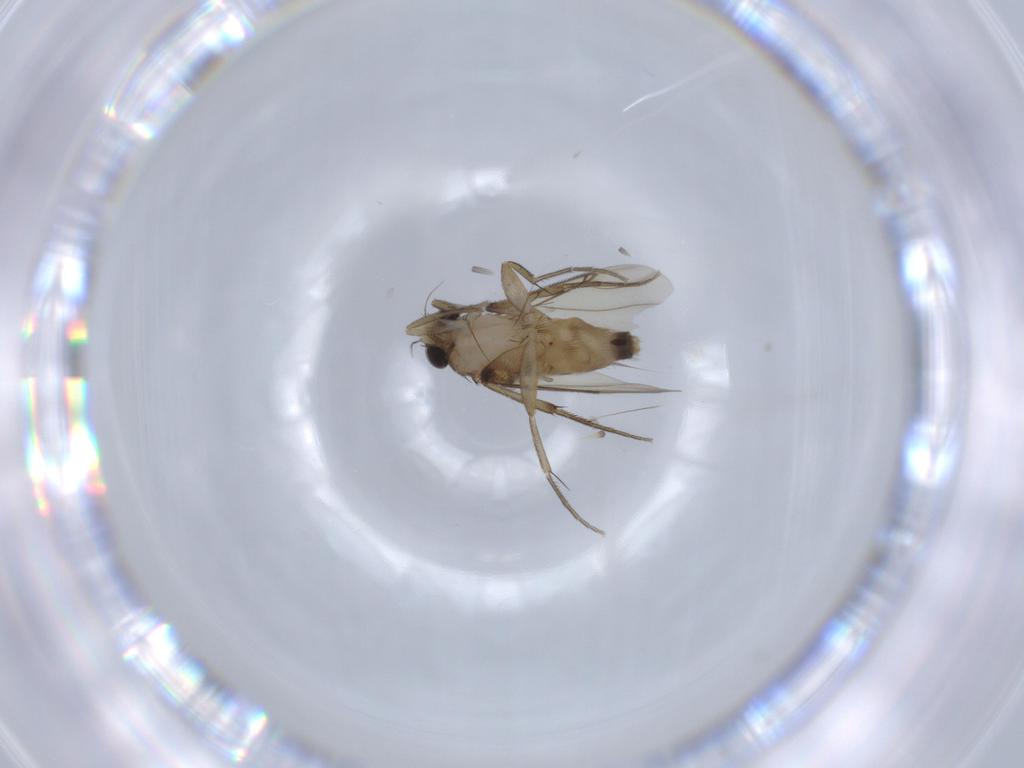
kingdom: Animalia
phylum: Arthropoda
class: Insecta
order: Diptera
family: Phoridae
